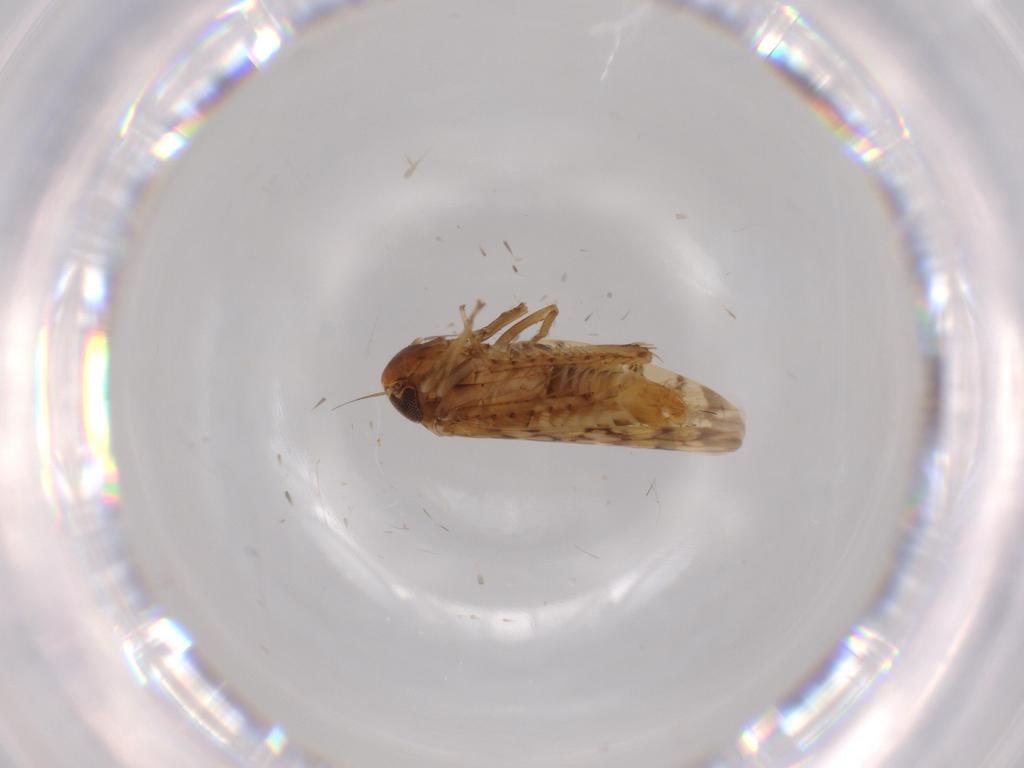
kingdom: Animalia
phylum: Arthropoda
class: Insecta
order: Hemiptera
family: Cicadellidae
